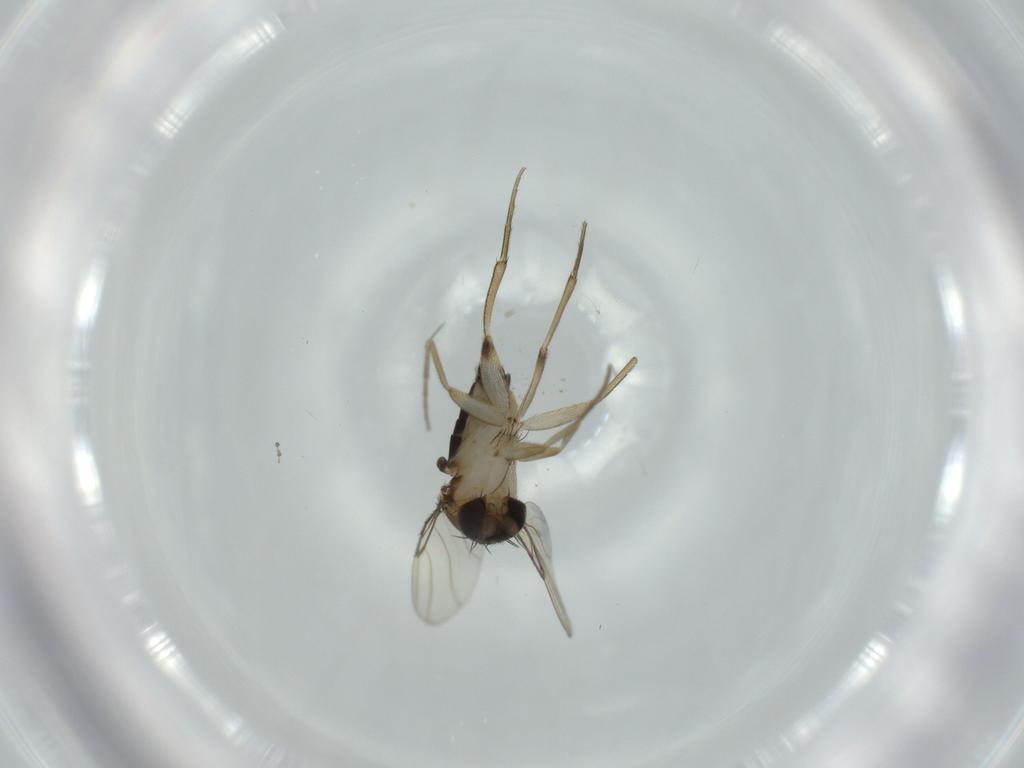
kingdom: Animalia
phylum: Arthropoda
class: Insecta
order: Diptera
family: Phoridae
